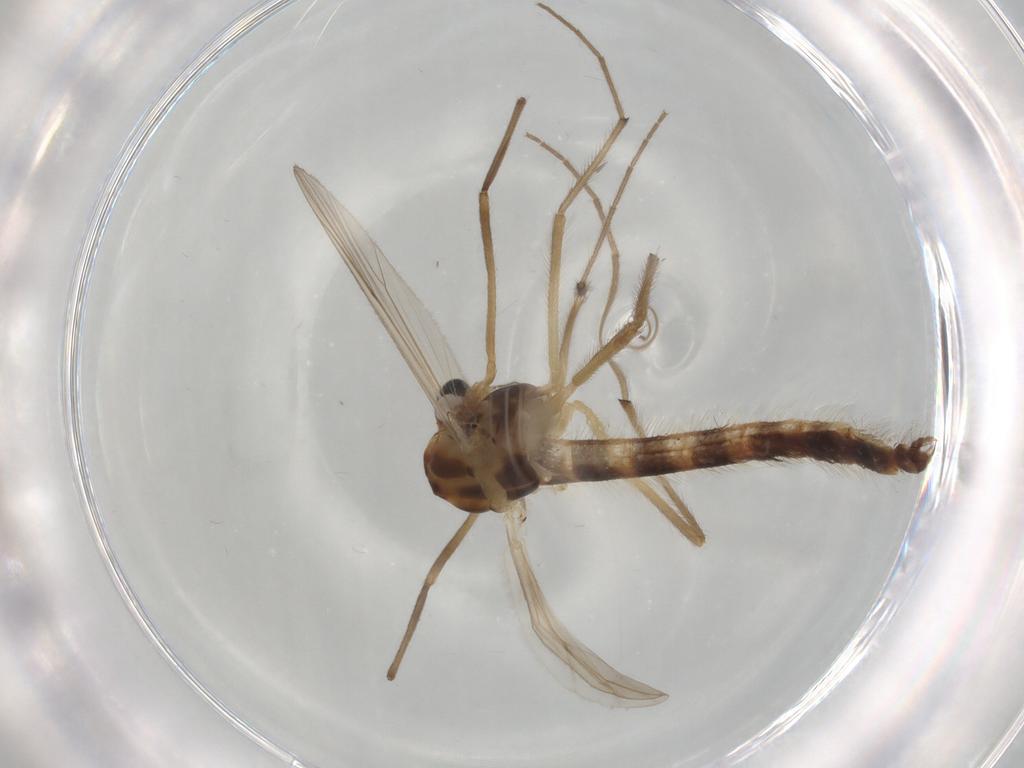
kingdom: Animalia
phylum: Arthropoda
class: Insecta
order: Diptera
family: Chironomidae
